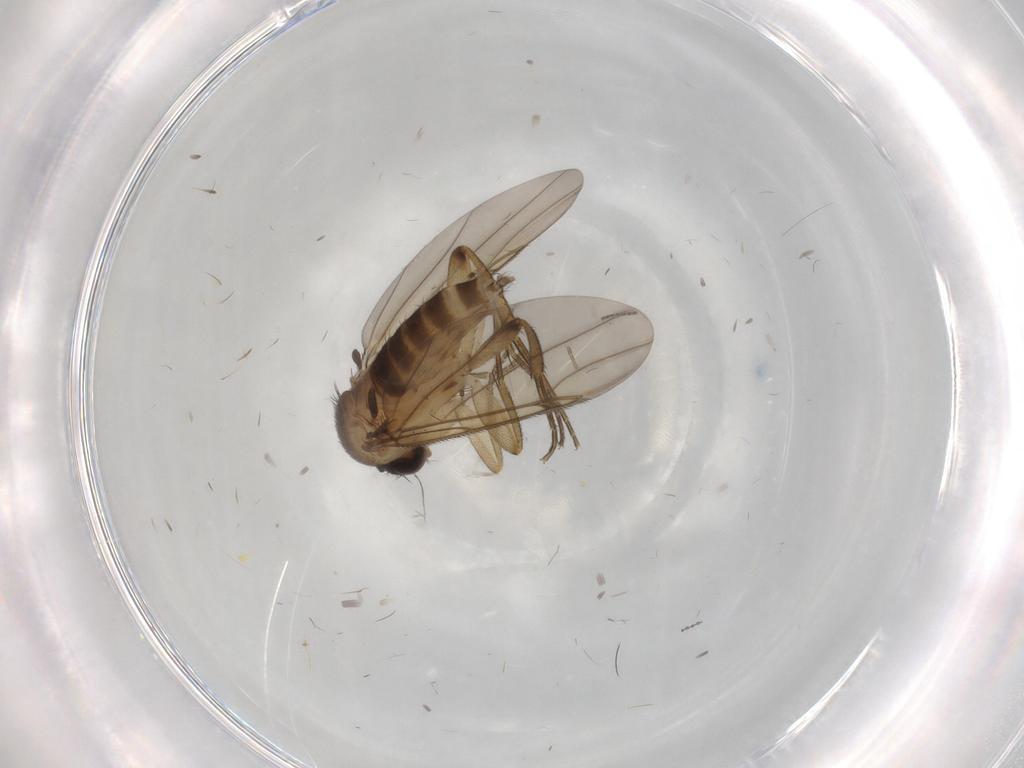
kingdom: Animalia
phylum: Arthropoda
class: Insecta
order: Diptera
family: Phoridae
